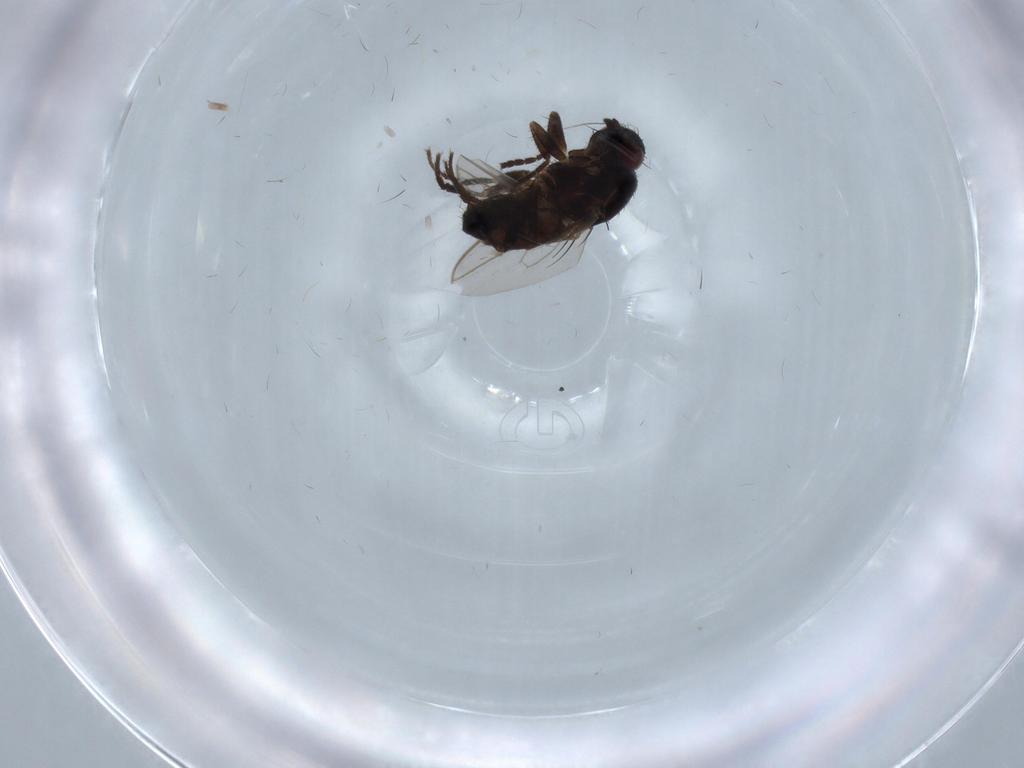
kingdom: Animalia
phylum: Arthropoda
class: Insecta
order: Diptera
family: Sphaeroceridae
